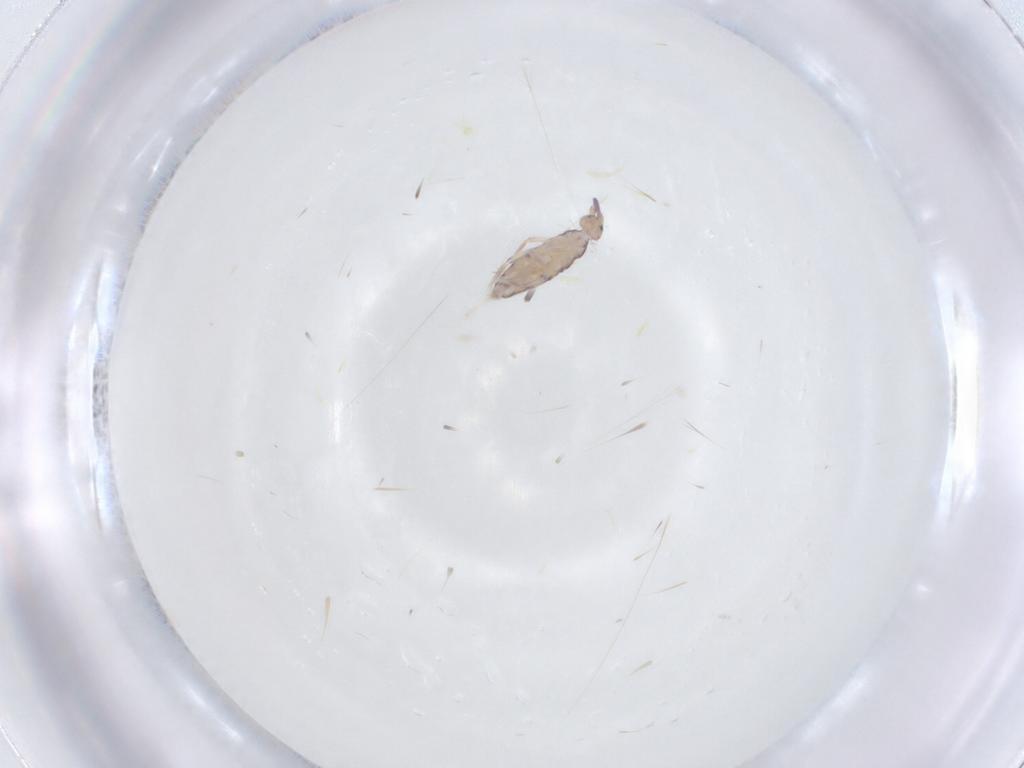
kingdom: Animalia
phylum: Arthropoda
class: Collembola
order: Entomobryomorpha
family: Entomobryidae
